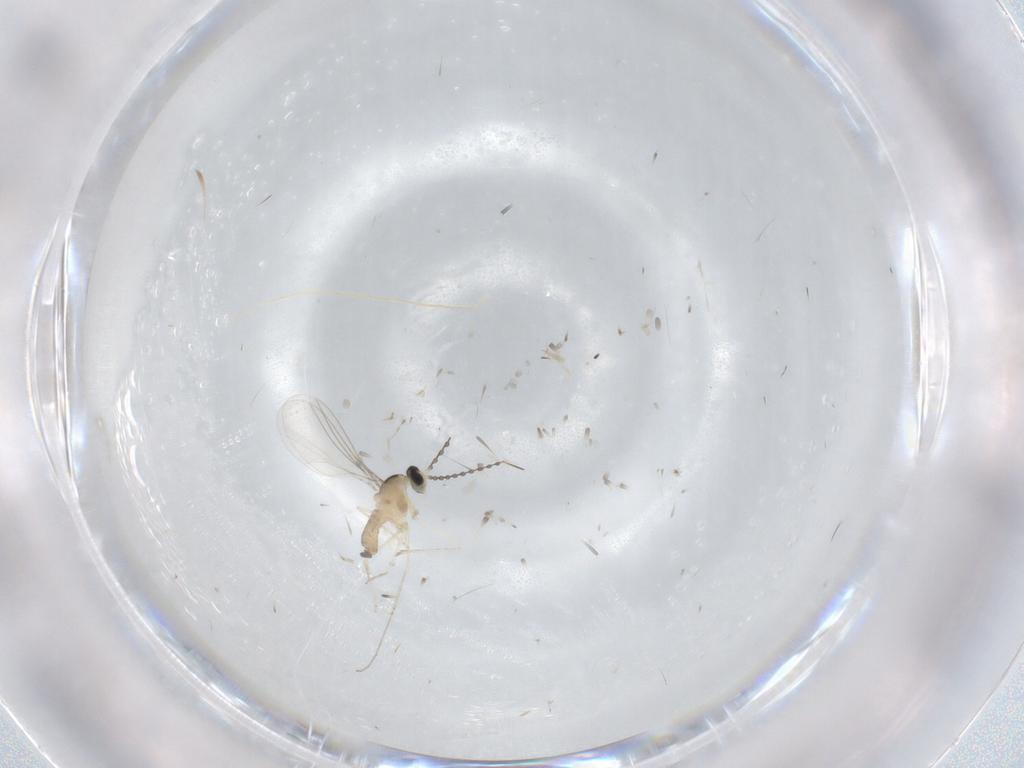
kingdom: Animalia
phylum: Arthropoda
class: Insecta
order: Diptera
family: Cecidomyiidae
